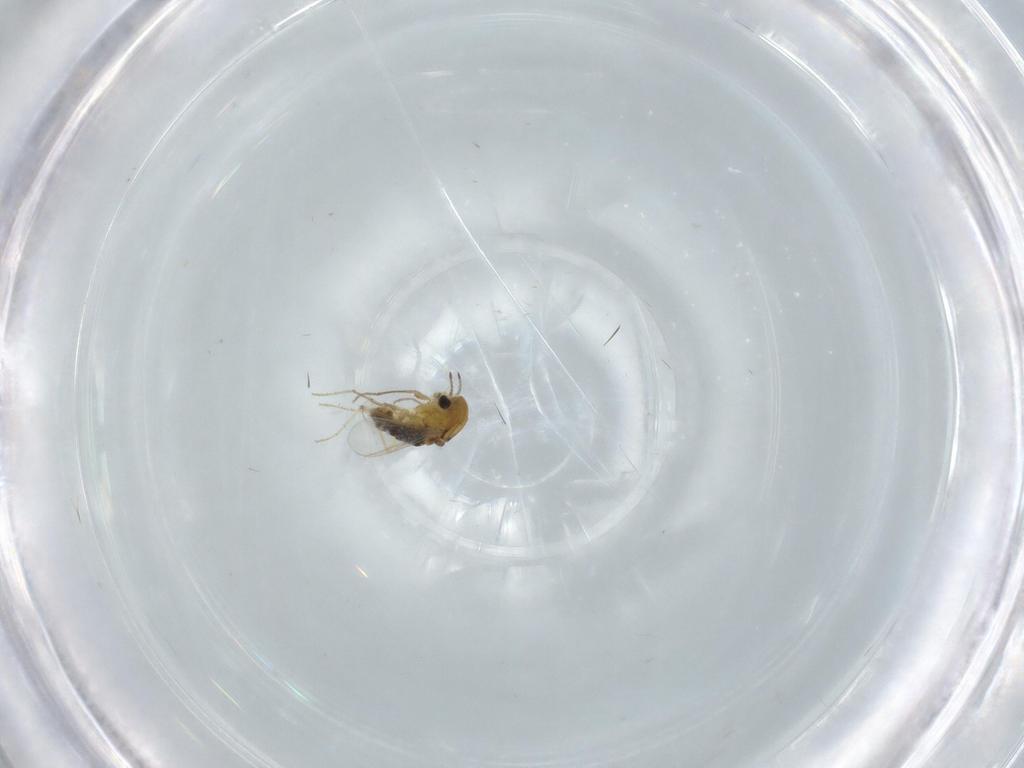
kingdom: Animalia
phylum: Arthropoda
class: Insecta
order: Diptera
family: Chironomidae
